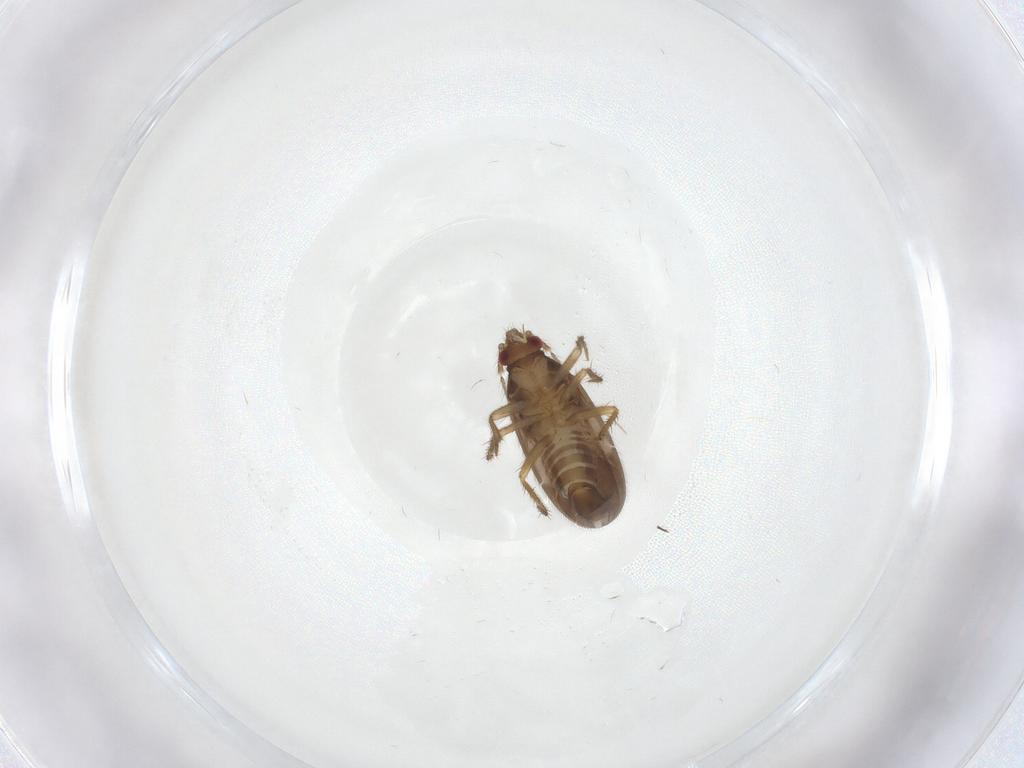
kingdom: Animalia
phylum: Arthropoda
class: Insecta
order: Hemiptera
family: Ceratocombidae
